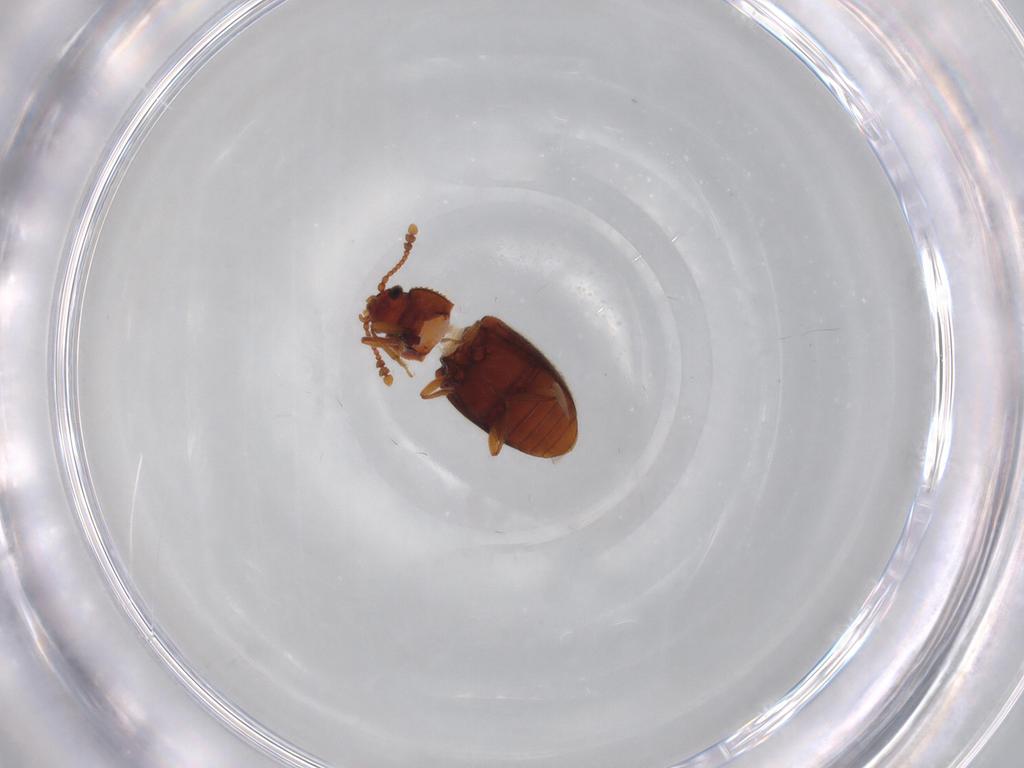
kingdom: Animalia
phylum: Arthropoda
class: Insecta
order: Coleoptera
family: Cryptophagidae
